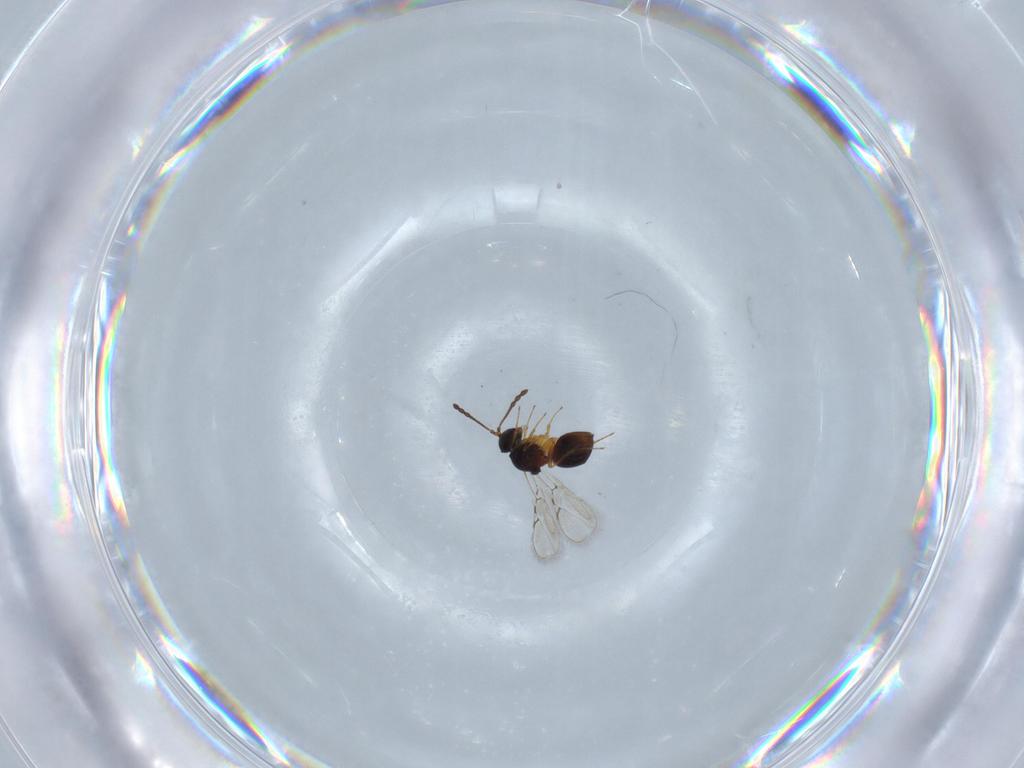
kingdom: Animalia
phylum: Arthropoda
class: Insecta
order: Hymenoptera
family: Figitidae
